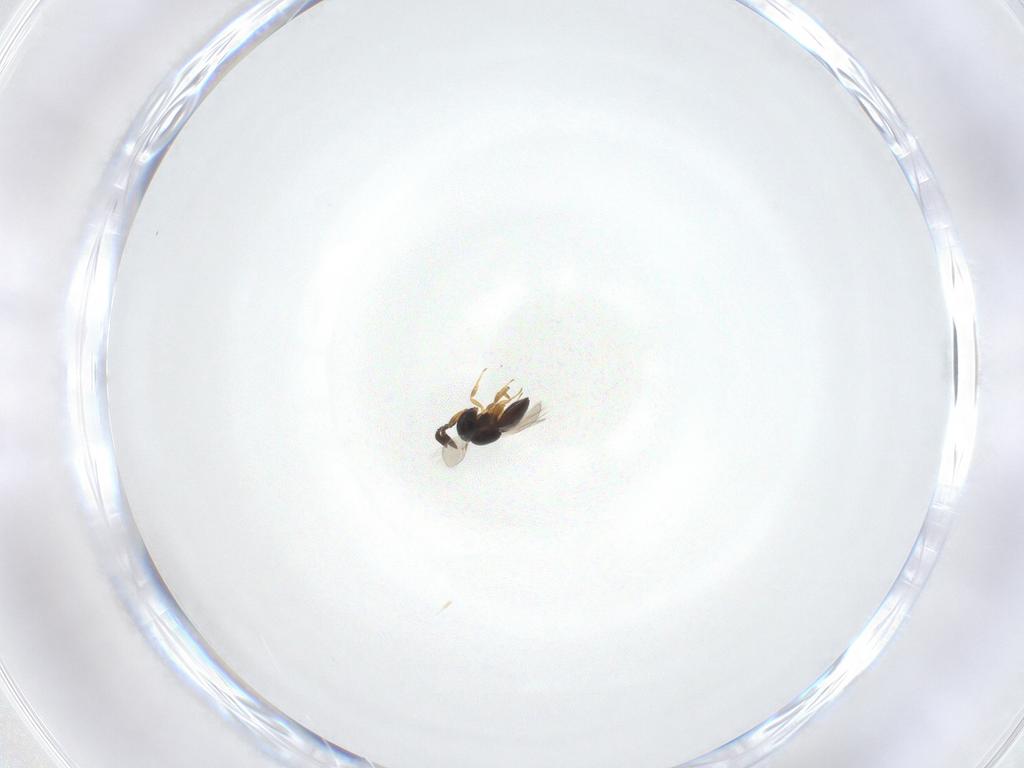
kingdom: Animalia
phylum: Arthropoda
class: Insecta
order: Hymenoptera
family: Scelionidae
